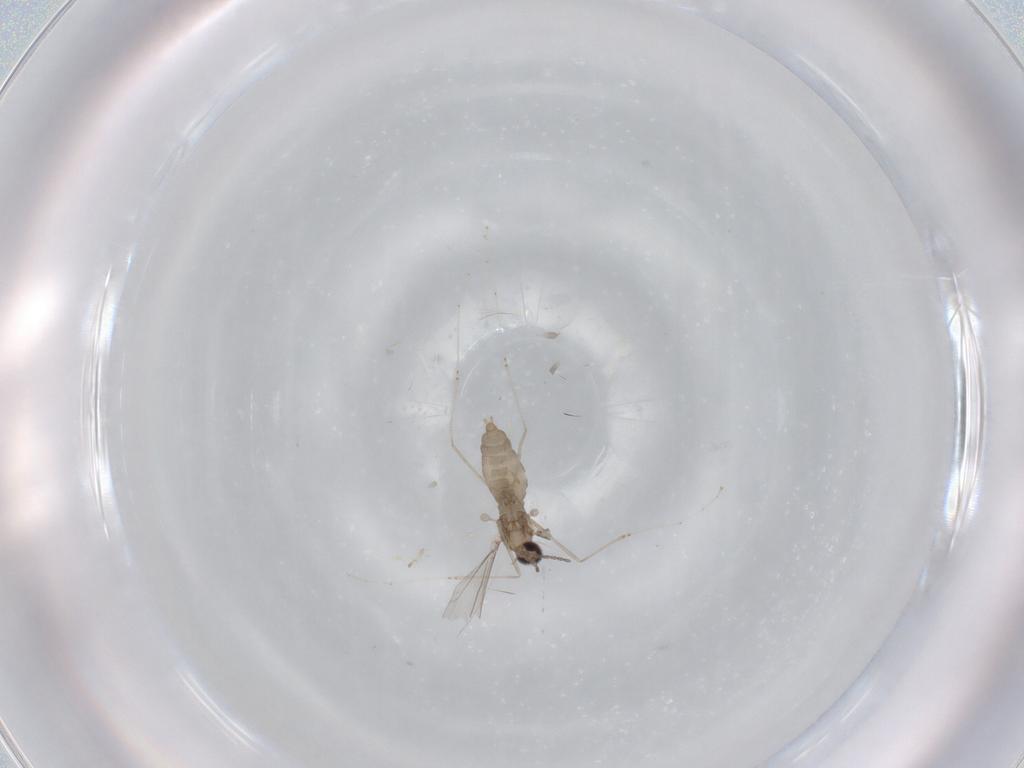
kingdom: Animalia
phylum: Arthropoda
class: Insecta
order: Diptera
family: Cecidomyiidae
